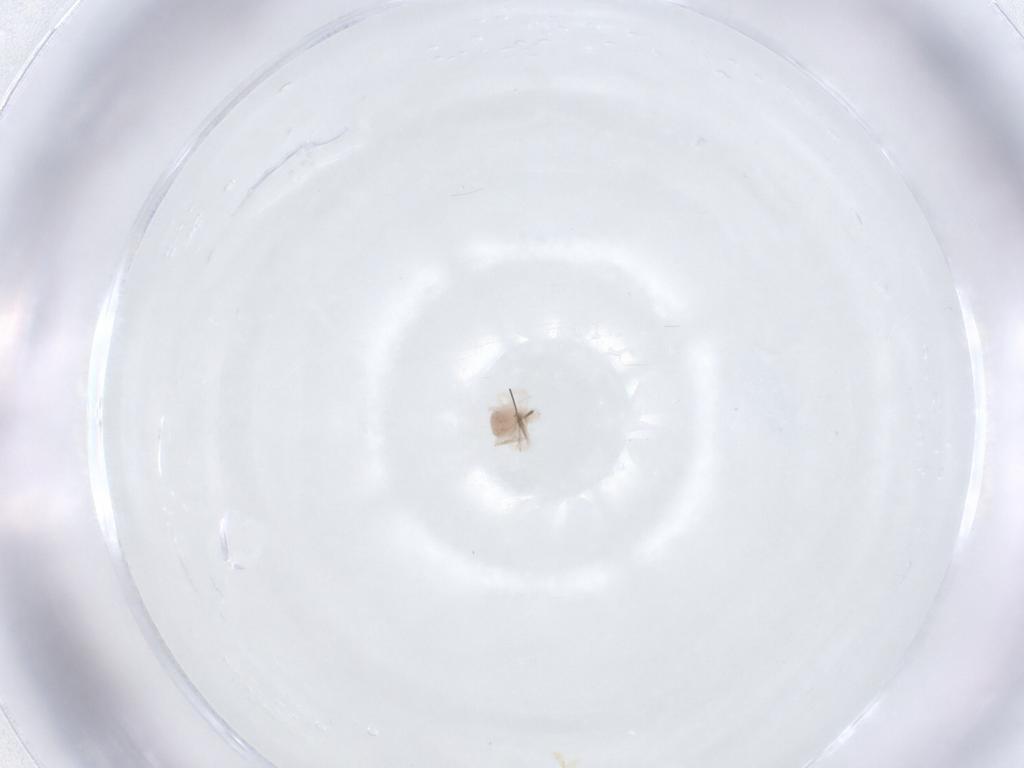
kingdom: Animalia
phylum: Arthropoda
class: Arachnida
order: Trombidiformes
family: Anystidae
